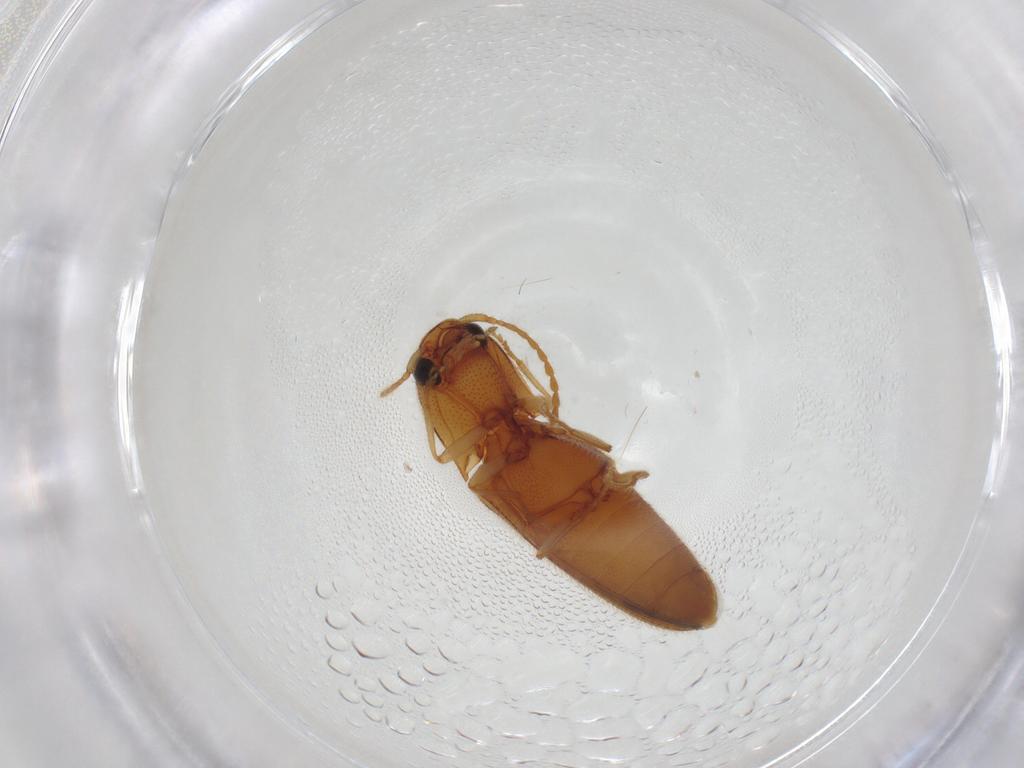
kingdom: Animalia
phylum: Arthropoda
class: Insecta
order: Coleoptera
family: Elateridae
